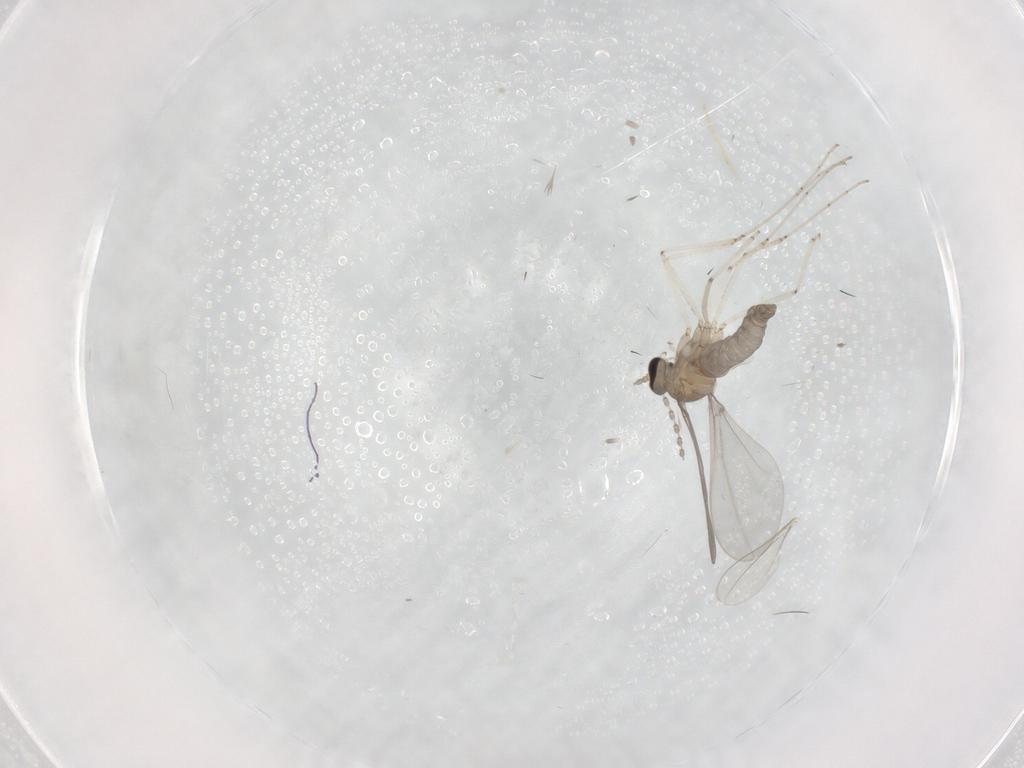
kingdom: Animalia
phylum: Arthropoda
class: Insecta
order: Diptera
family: Cecidomyiidae
